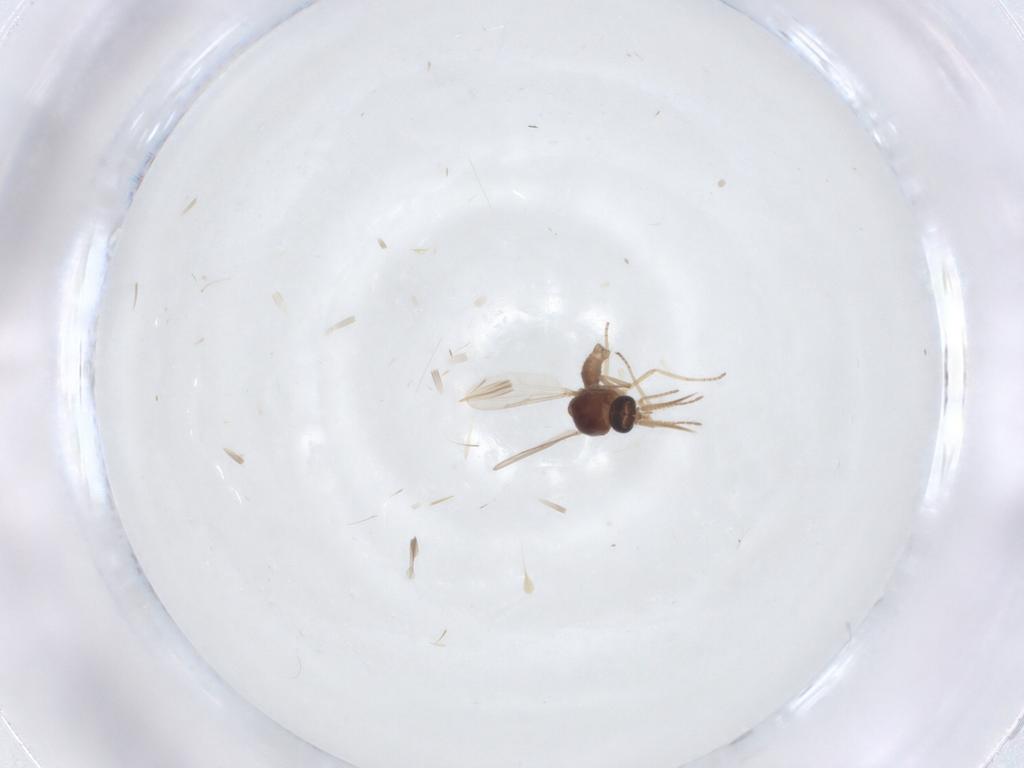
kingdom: Animalia
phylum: Arthropoda
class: Insecta
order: Diptera
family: Ceratopogonidae
